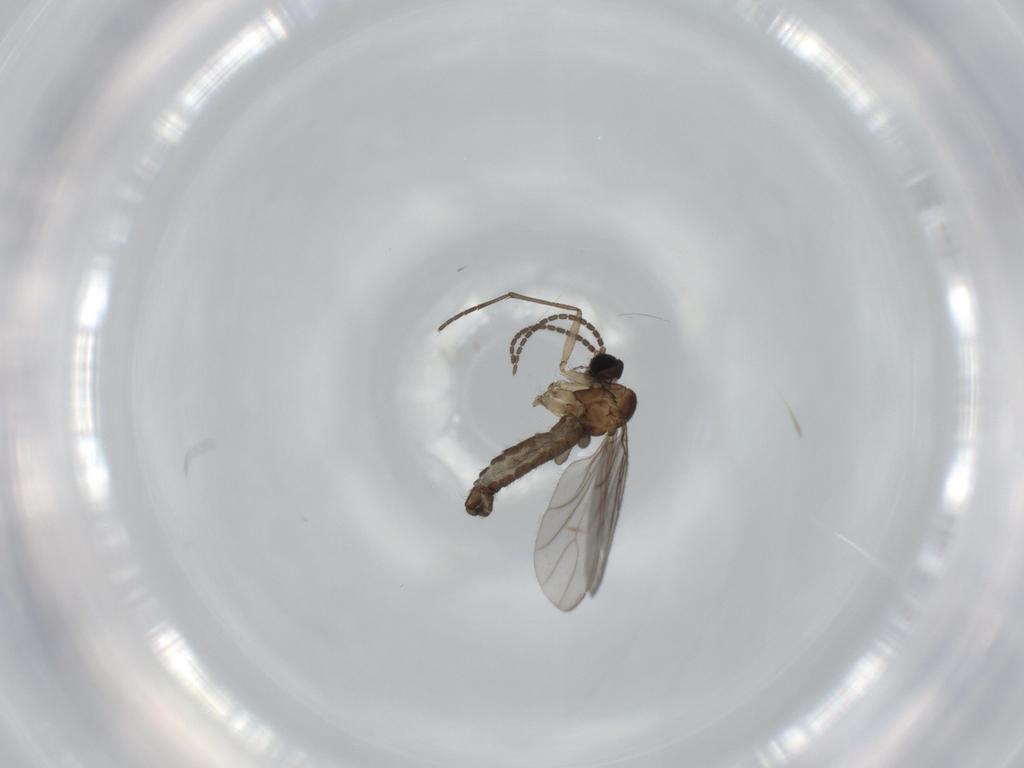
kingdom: Animalia
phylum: Arthropoda
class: Insecta
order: Diptera
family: Sciaridae
